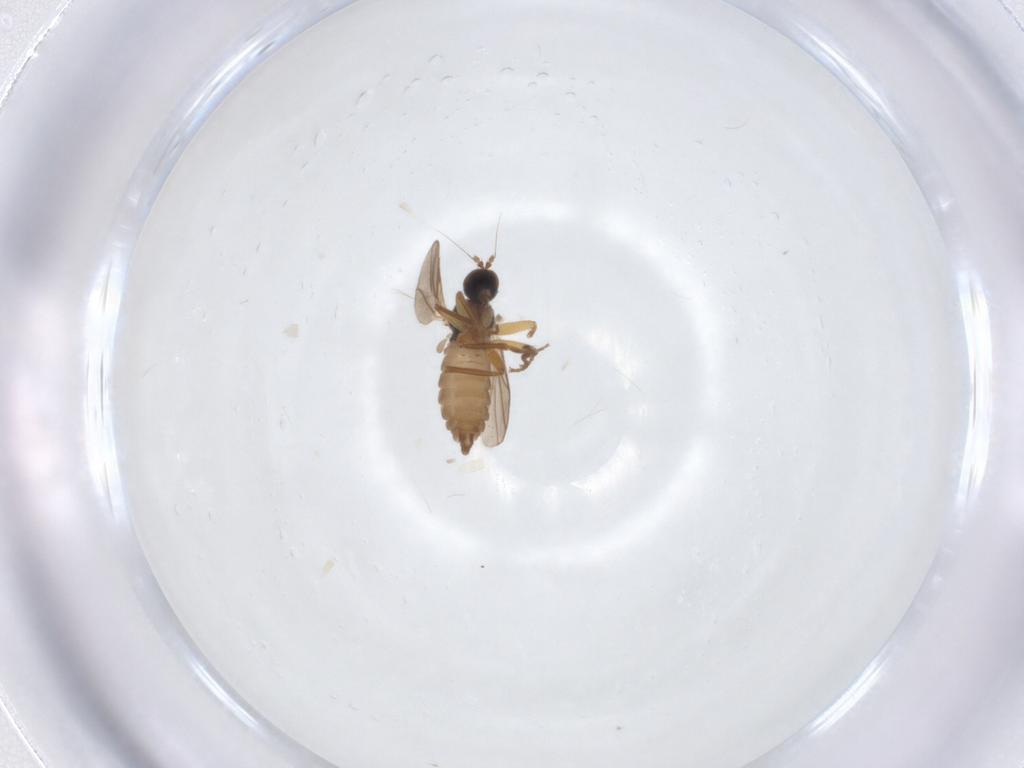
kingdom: Animalia
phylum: Arthropoda
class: Insecta
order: Diptera
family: Hybotidae
